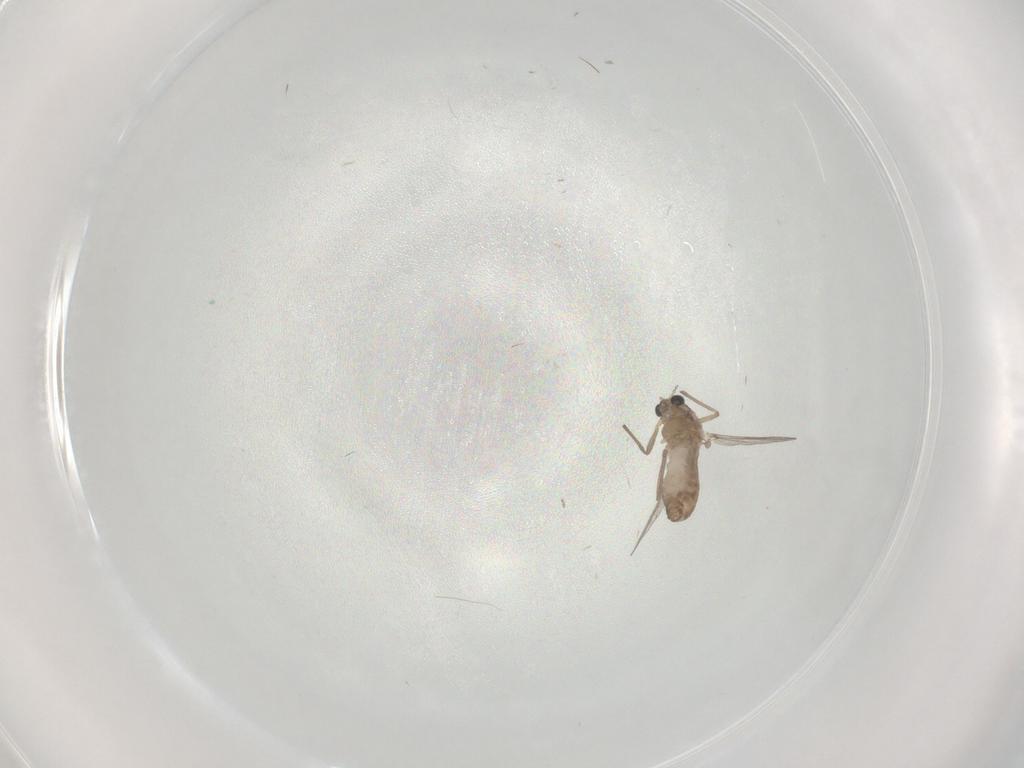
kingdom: Animalia
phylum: Arthropoda
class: Insecta
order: Diptera
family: Chironomidae
